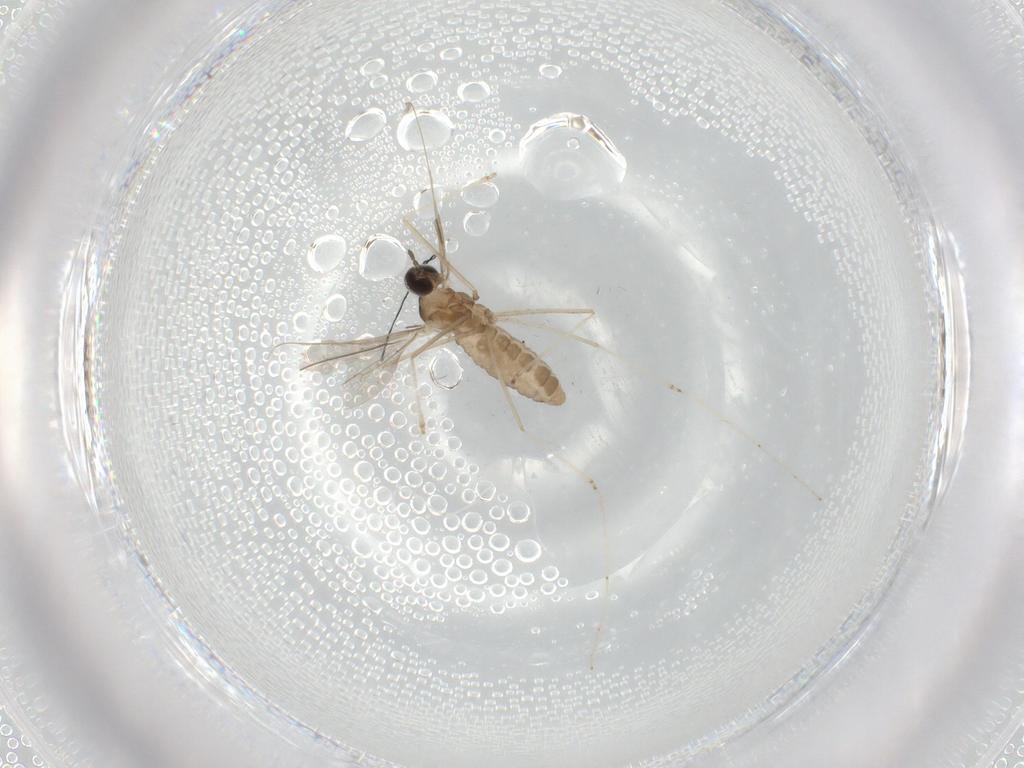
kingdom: Animalia
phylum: Arthropoda
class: Insecta
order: Diptera
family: Cecidomyiidae
